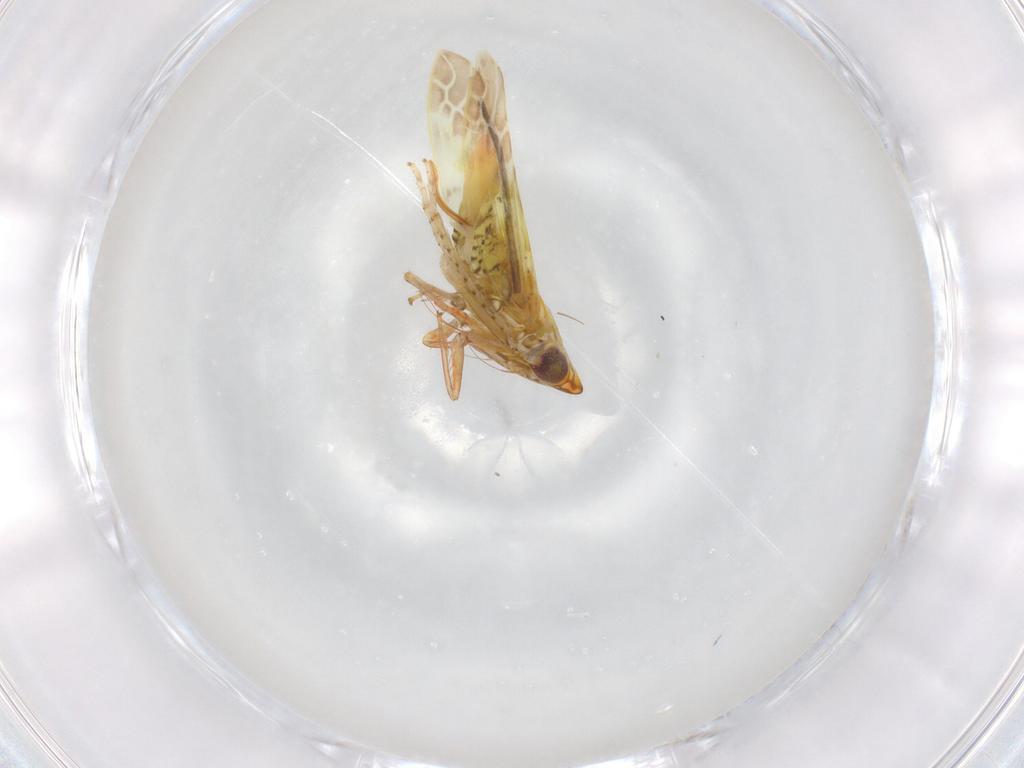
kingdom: Animalia
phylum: Arthropoda
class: Insecta
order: Hemiptera
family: Cicadellidae
